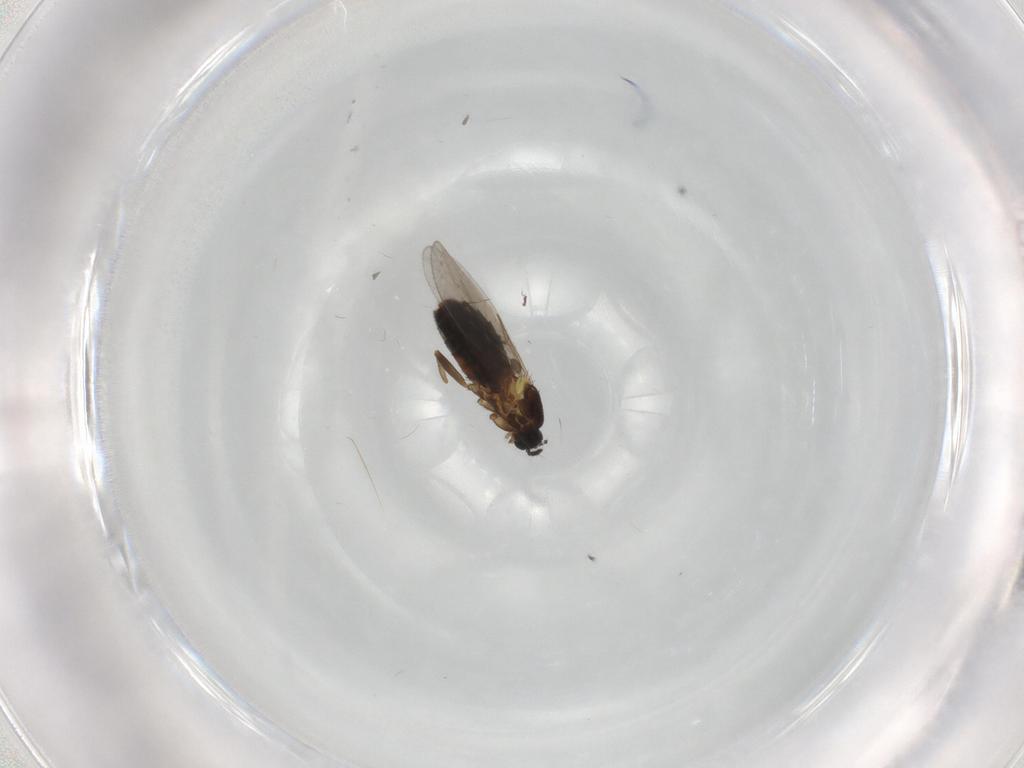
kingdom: Animalia
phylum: Arthropoda
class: Insecta
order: Diptera
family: Scatopsidae
